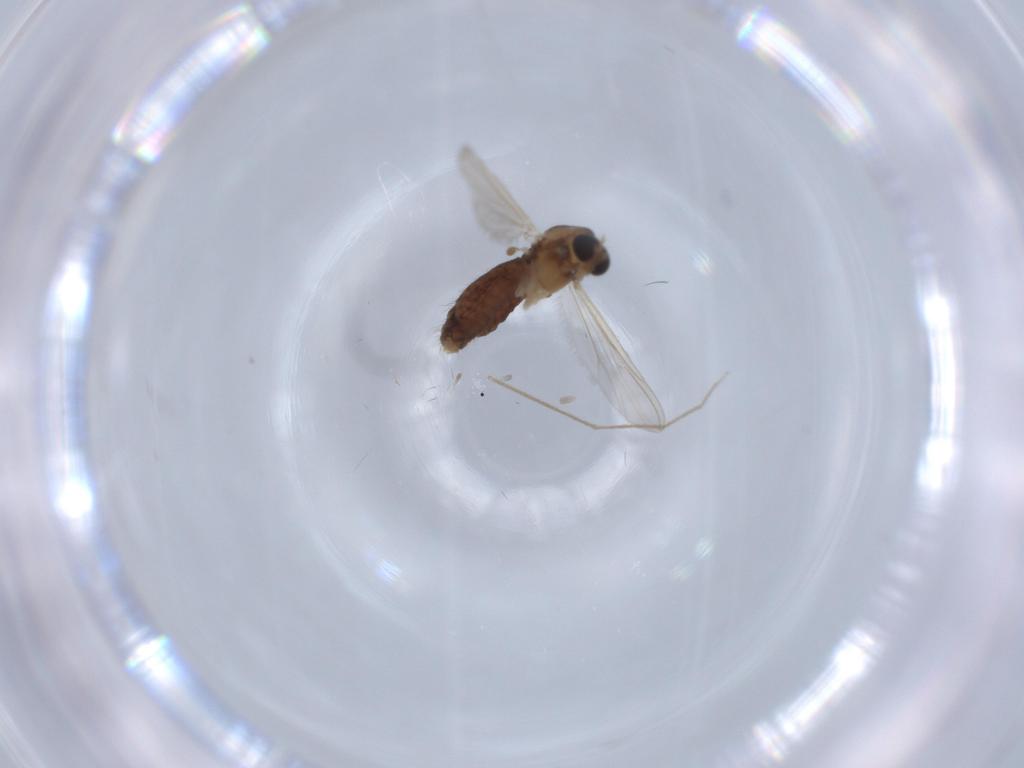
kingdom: Animalia
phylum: Arthropoda
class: Insecta
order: Diptera
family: Chironomidae
